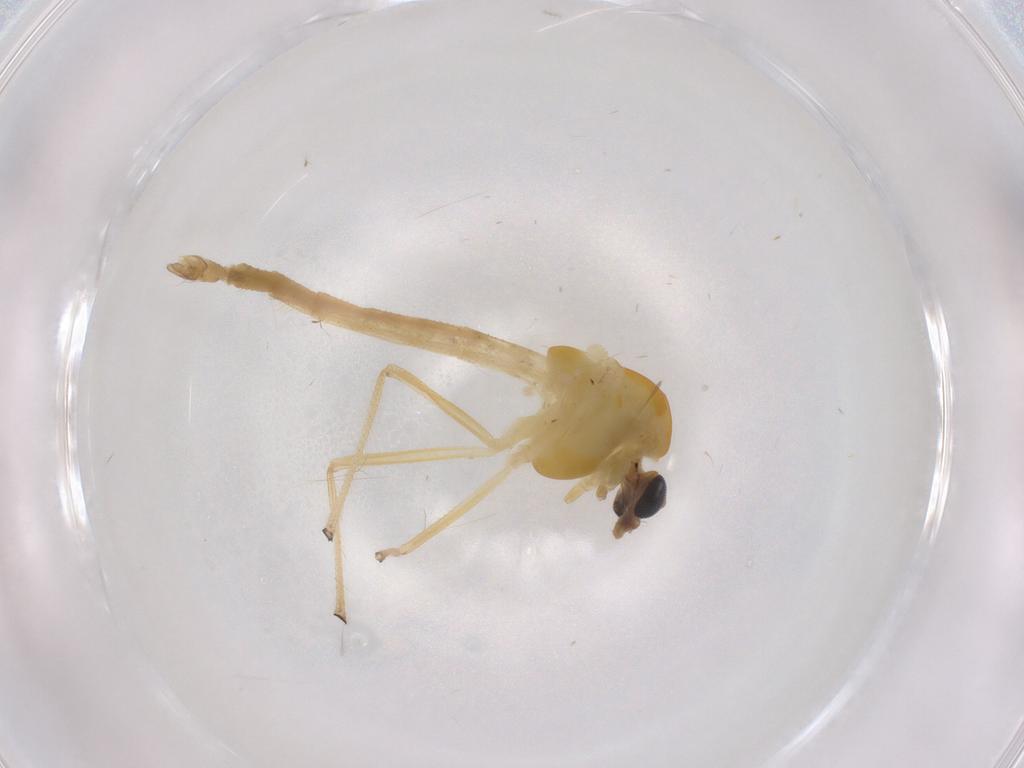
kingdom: Animalia
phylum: Arthropoda
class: Insecta
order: Diptera
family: Chironomidae
